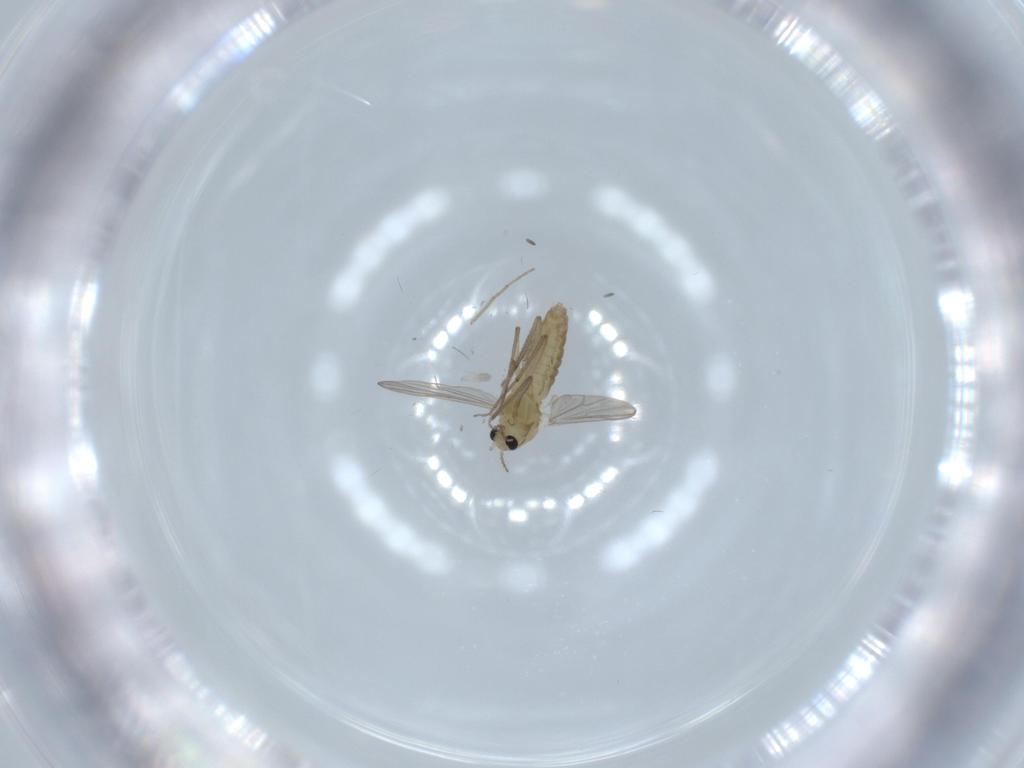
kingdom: Animalia
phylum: Arthropoda
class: Insecta
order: Diptera
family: Chironomidae
